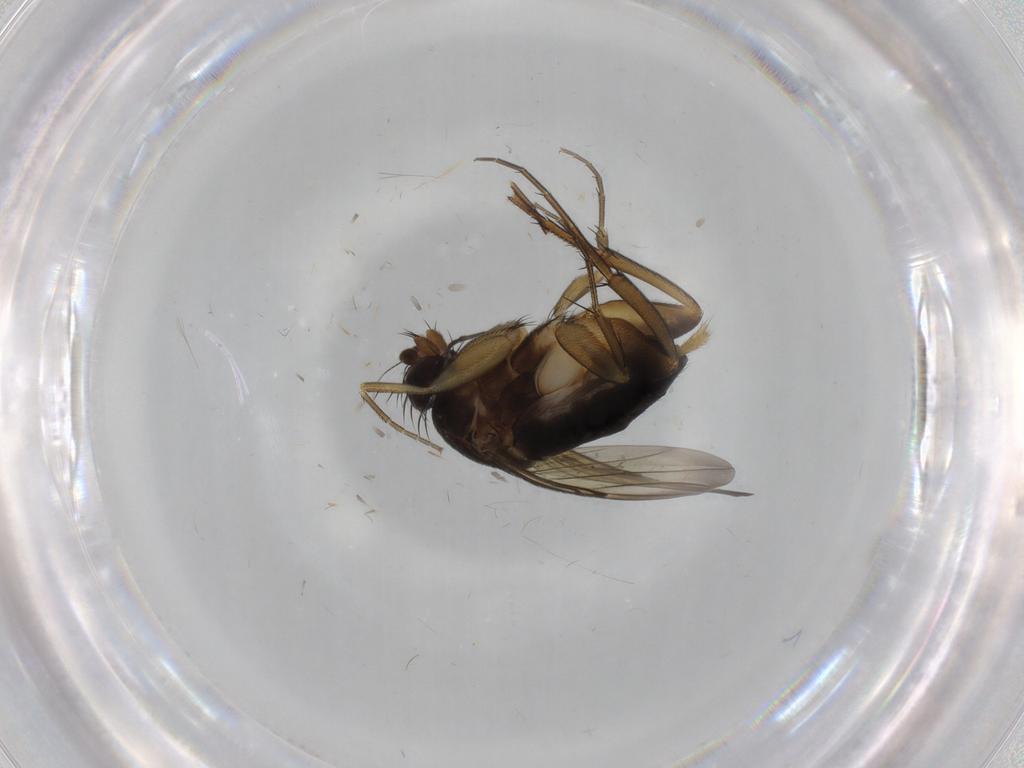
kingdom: Animalia
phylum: Arthropoda
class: Insecta
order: Diptera
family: Phoridae
